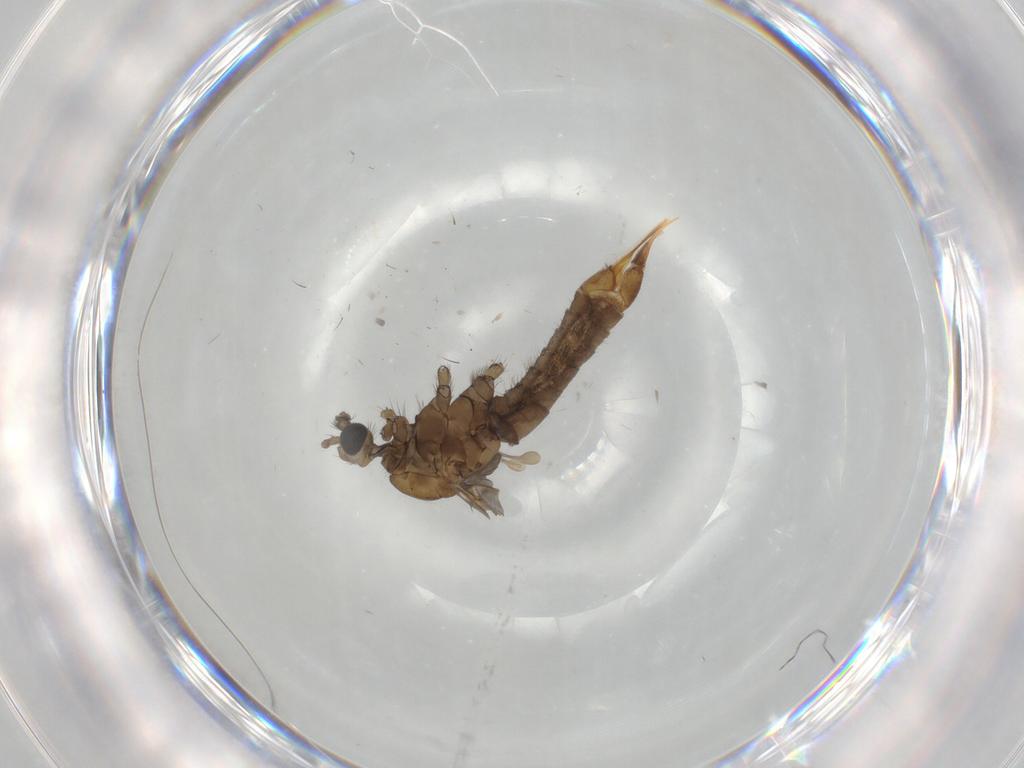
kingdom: Animalia
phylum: Arthropoda
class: Insecta
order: Diptera
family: Limoniidae
